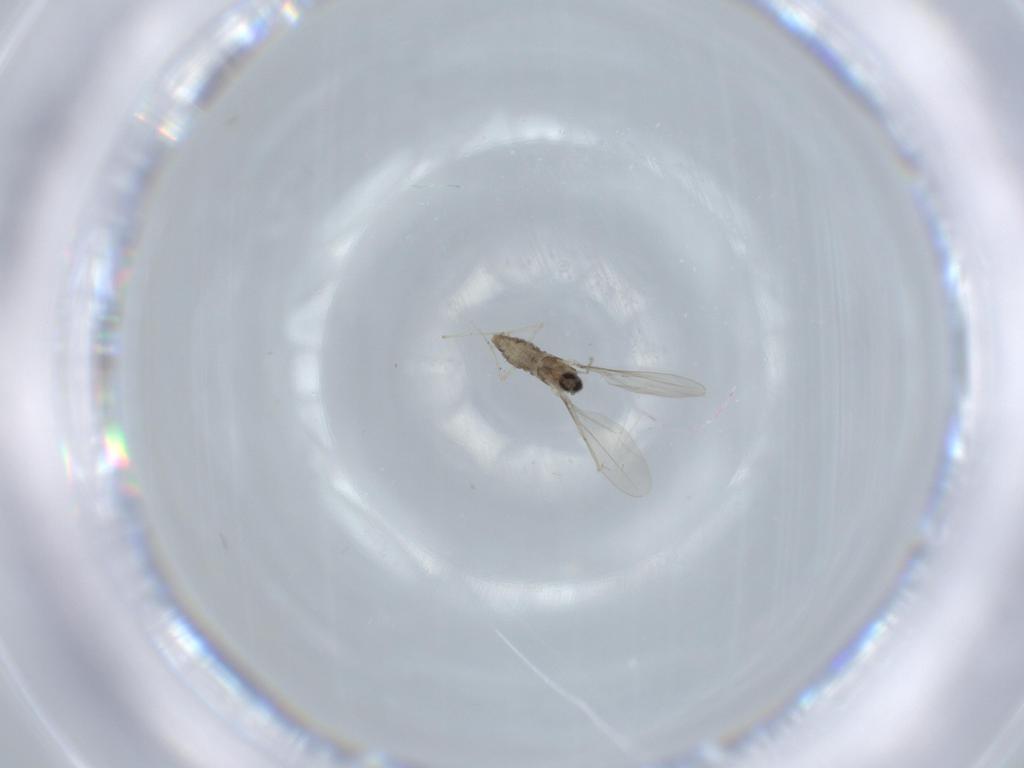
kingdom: Animalia
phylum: Arthropoda
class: Insecta
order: Diptera
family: Cecidomyiidae
